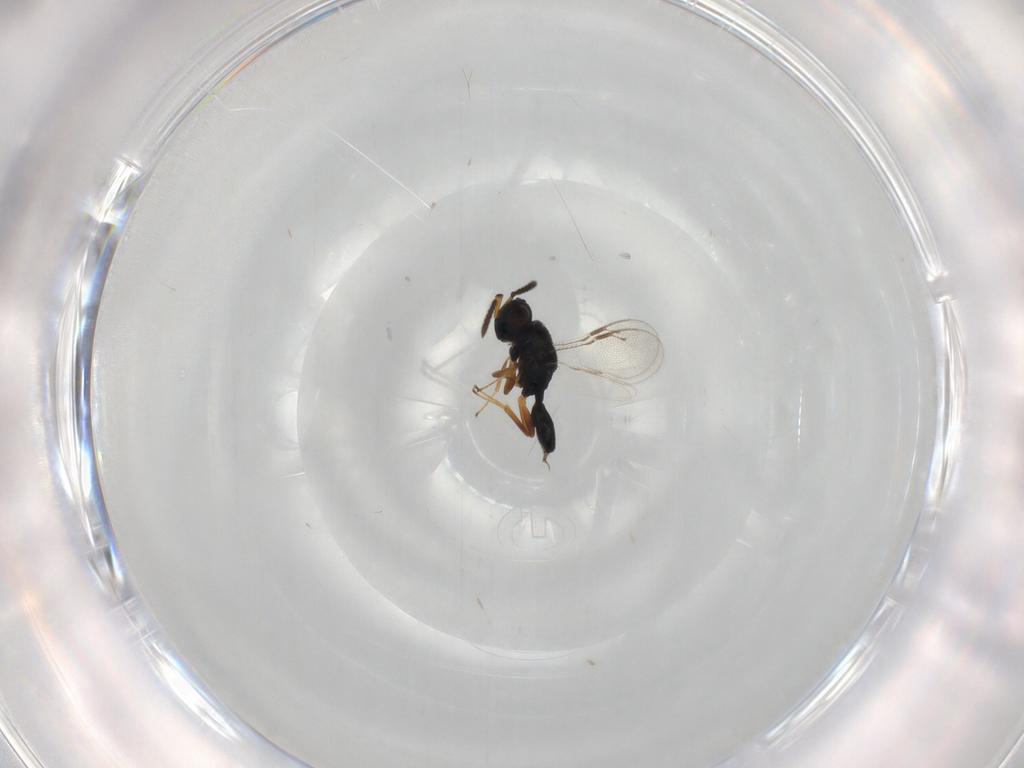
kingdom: Animalia
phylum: Arthropoda
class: Insecta
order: Hymenoptera
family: Pteromalidae
